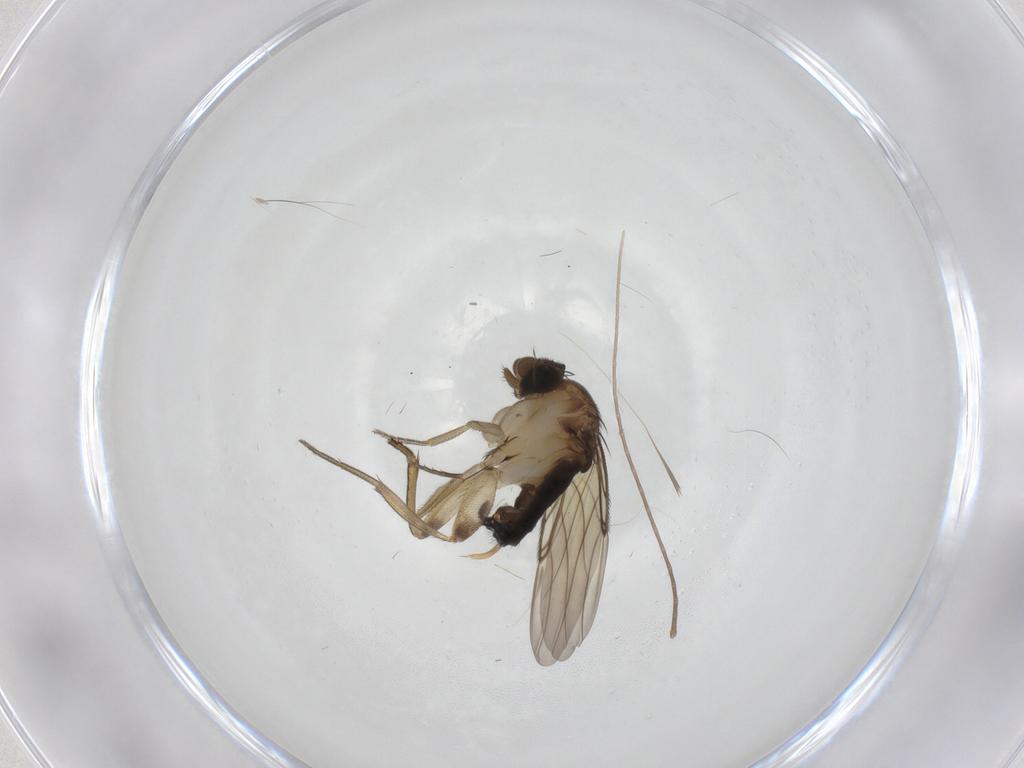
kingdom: Animalia
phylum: Arthropoda
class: Insecta
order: Diptera
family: Phoridae
